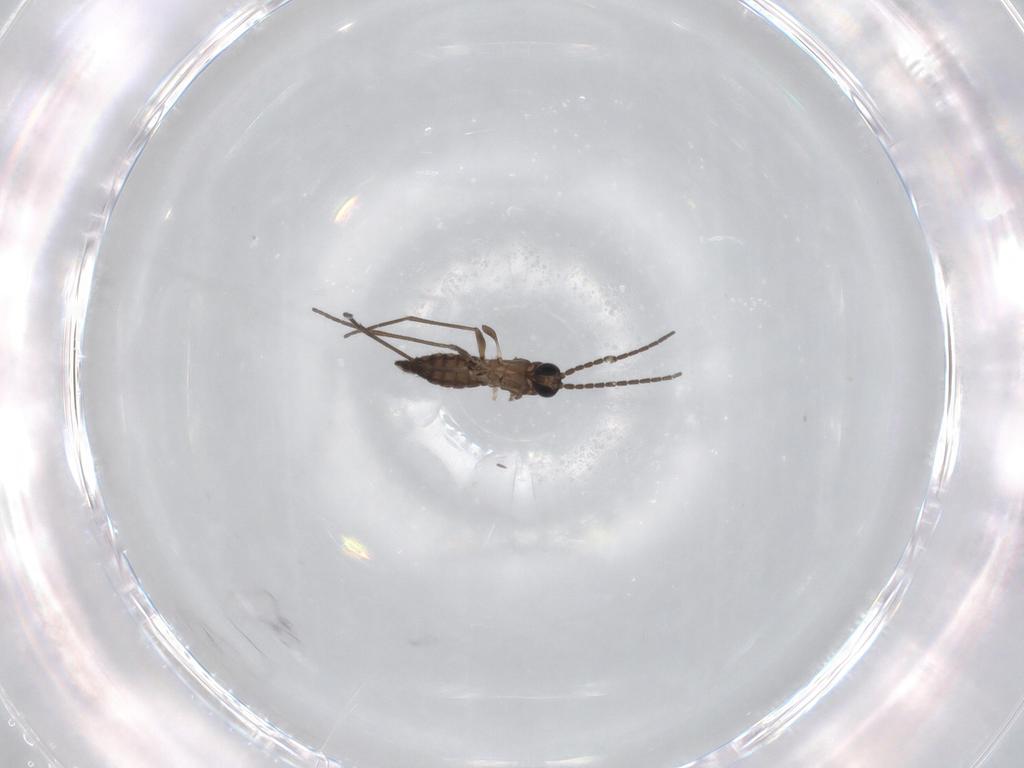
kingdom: Animalia
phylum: Arthropoda
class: Insecta
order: Diptera
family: Sciaridae
